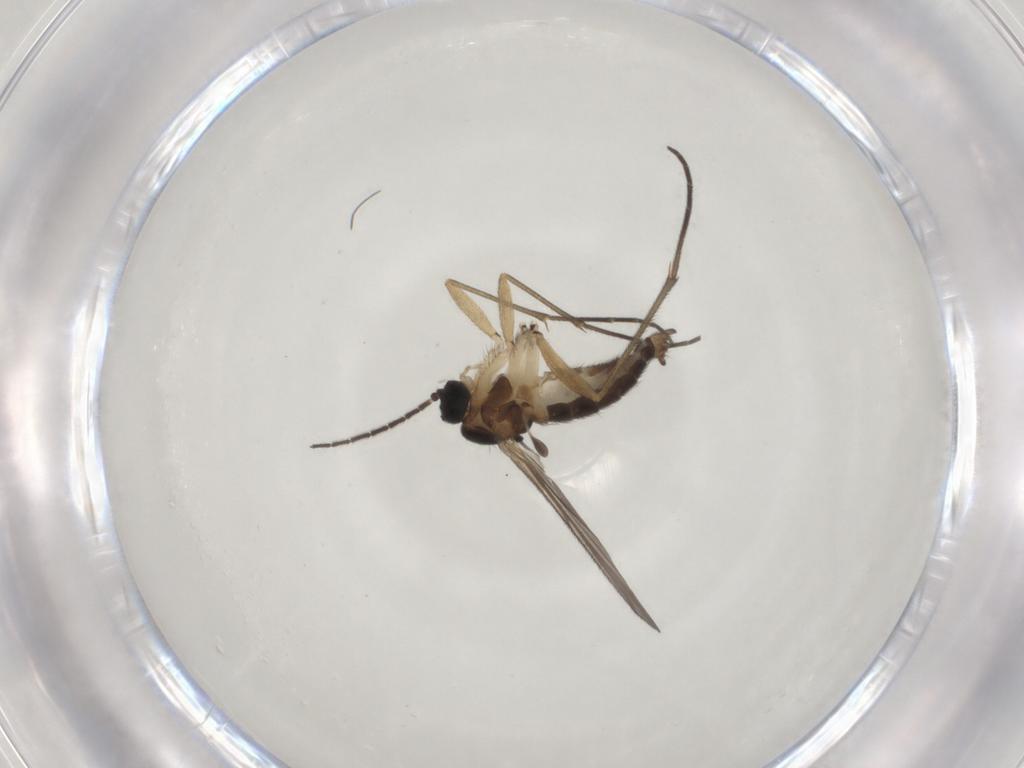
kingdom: Animalia
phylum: Arthropoda
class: Insecta
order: Diptera
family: Sciaridae
